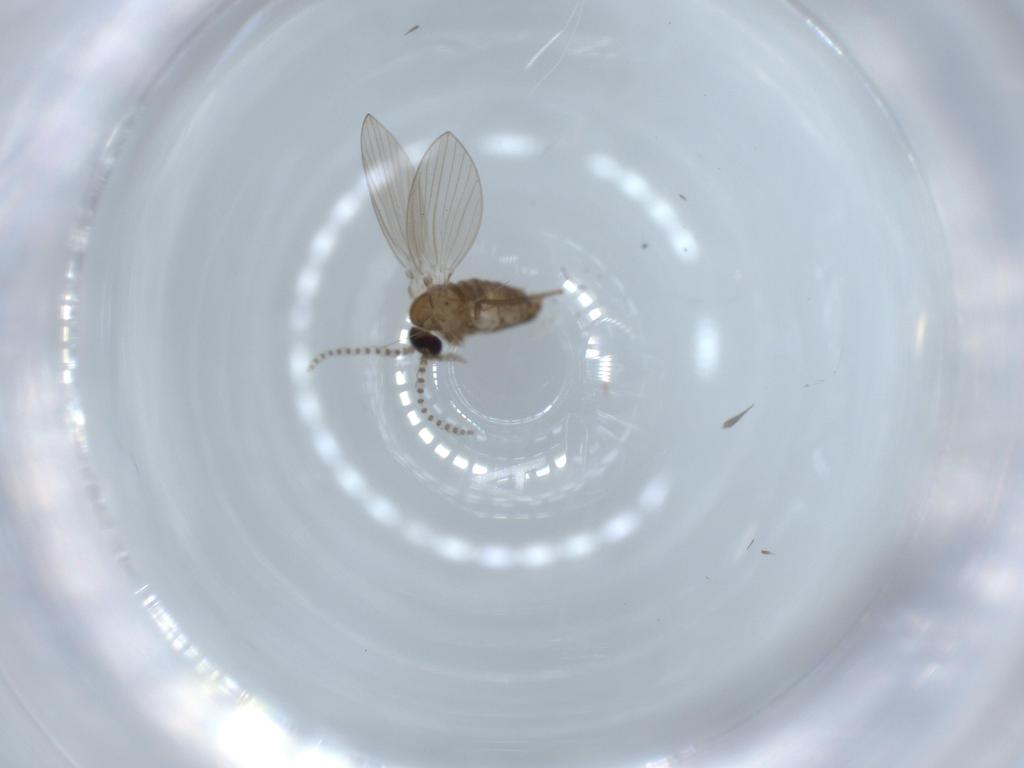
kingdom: Animalia
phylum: Arthropoda
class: Insecta
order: Diptera
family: Psychodidae
